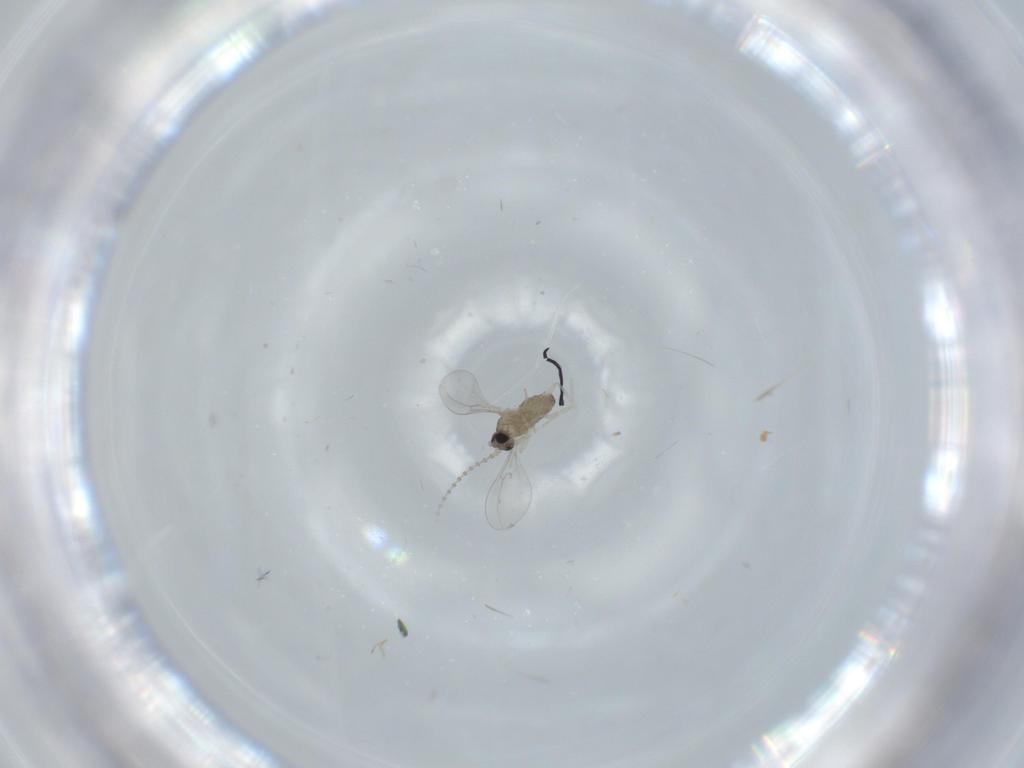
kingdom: Animalia
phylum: Arthropoda
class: Insecta
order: Diptera
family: Cecidomyiidae
